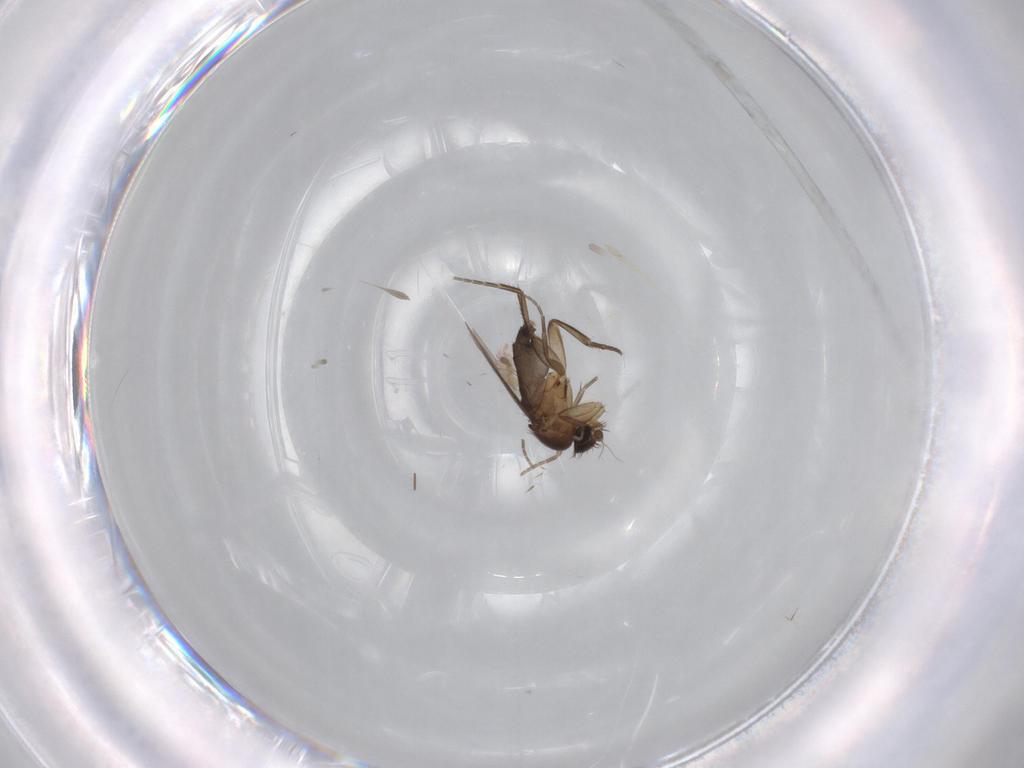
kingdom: Animalia
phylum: Arthropoda
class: Insecta
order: Diptera
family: Phoridae
